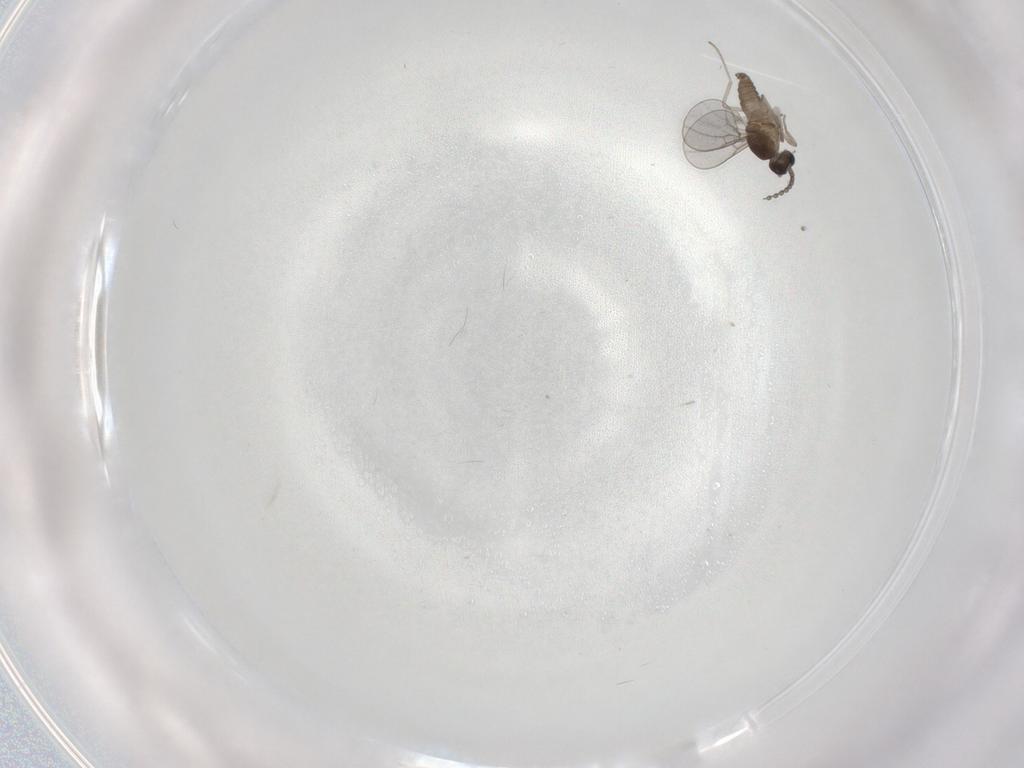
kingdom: Animalia
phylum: Arthropoda
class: Insecta
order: Diptera
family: Cecidomyiidae
